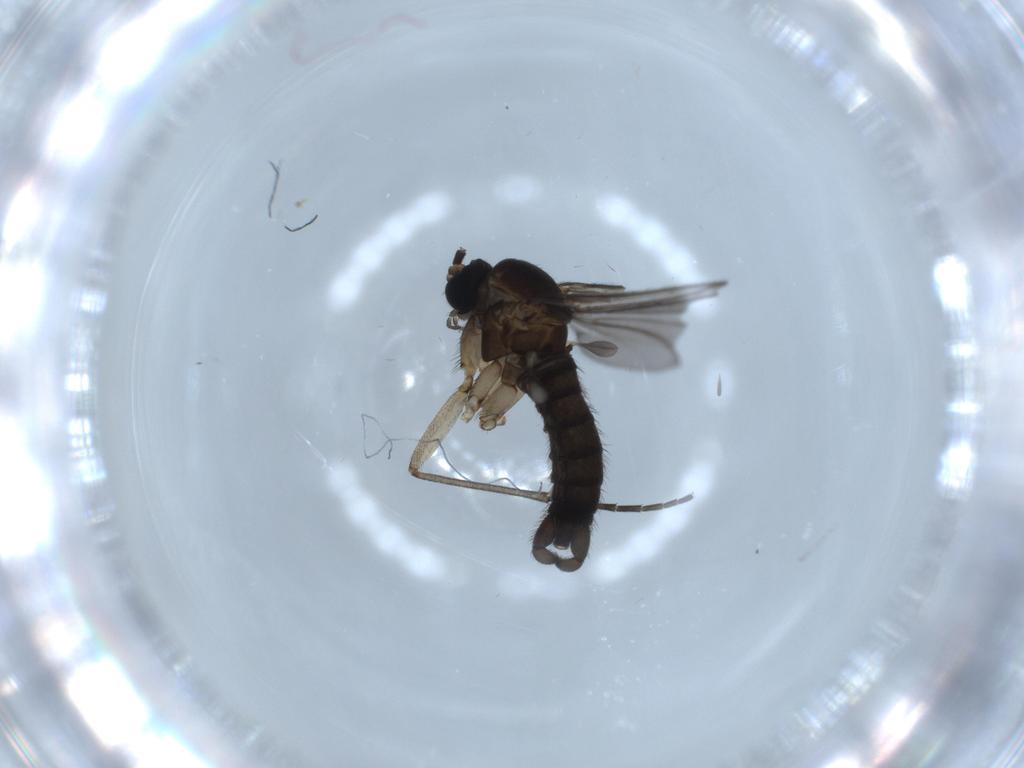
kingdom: Animalia
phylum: Arthropoda
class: Insecta
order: Diptera
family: Sciaridae
